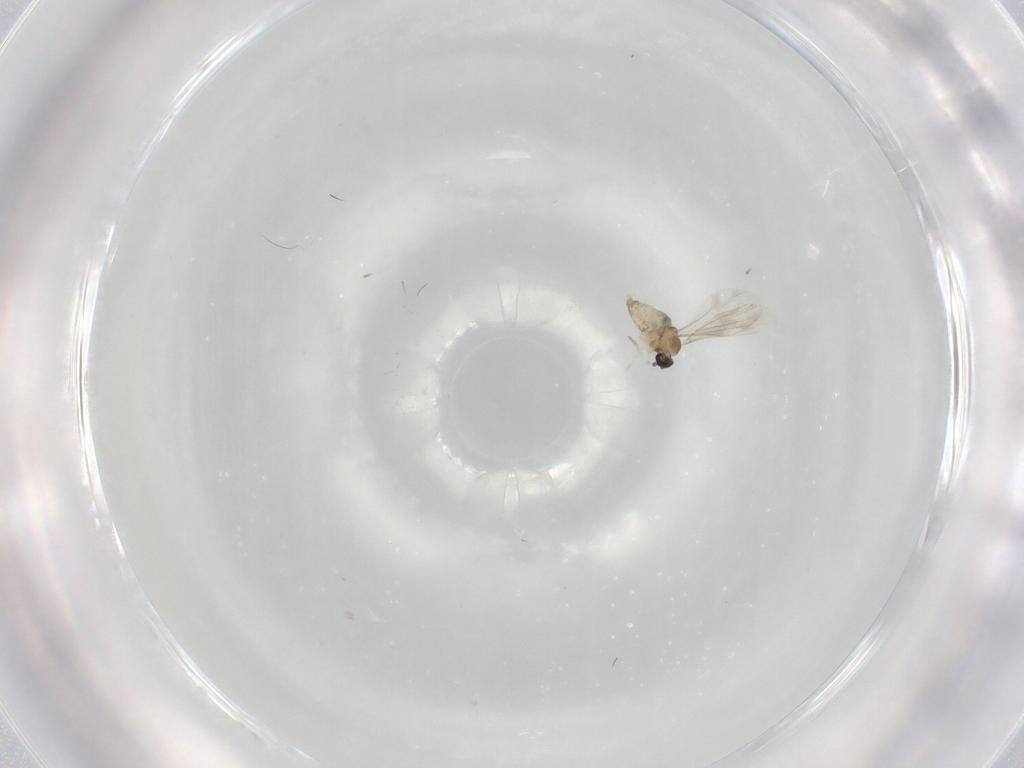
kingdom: Animalia
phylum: Arthropoda
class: Insecta
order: Diptera
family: Cecidomyiidae
